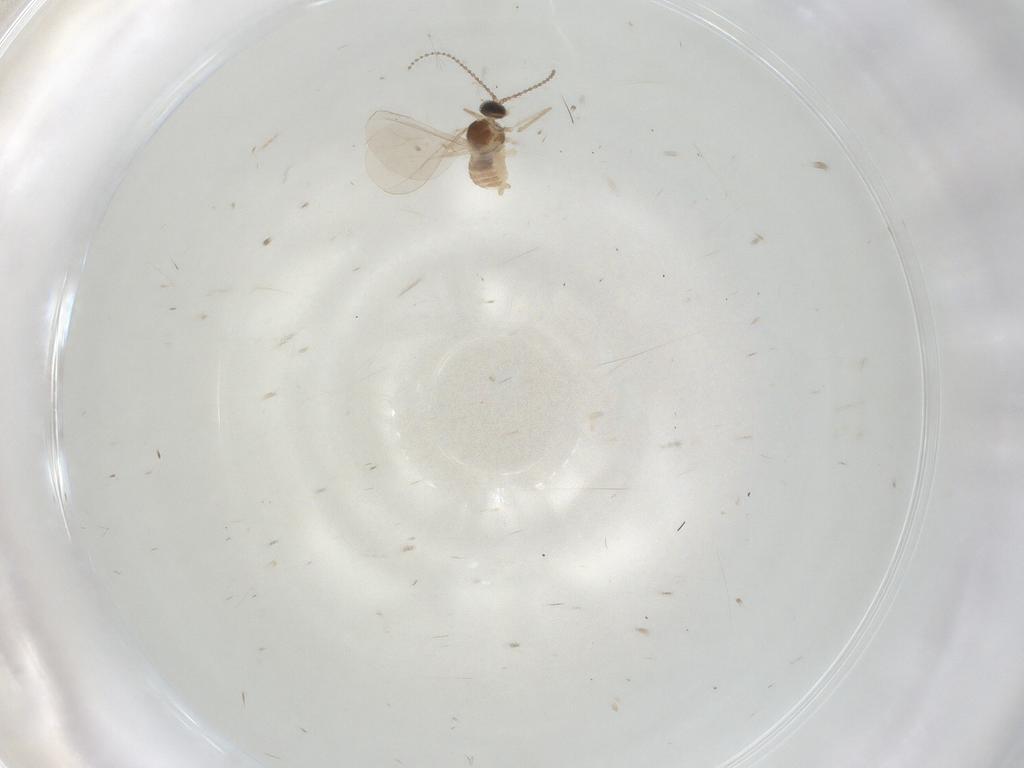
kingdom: Animalia
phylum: Arthropoda
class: Insecta
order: Diptera
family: Cecidomyiidae
